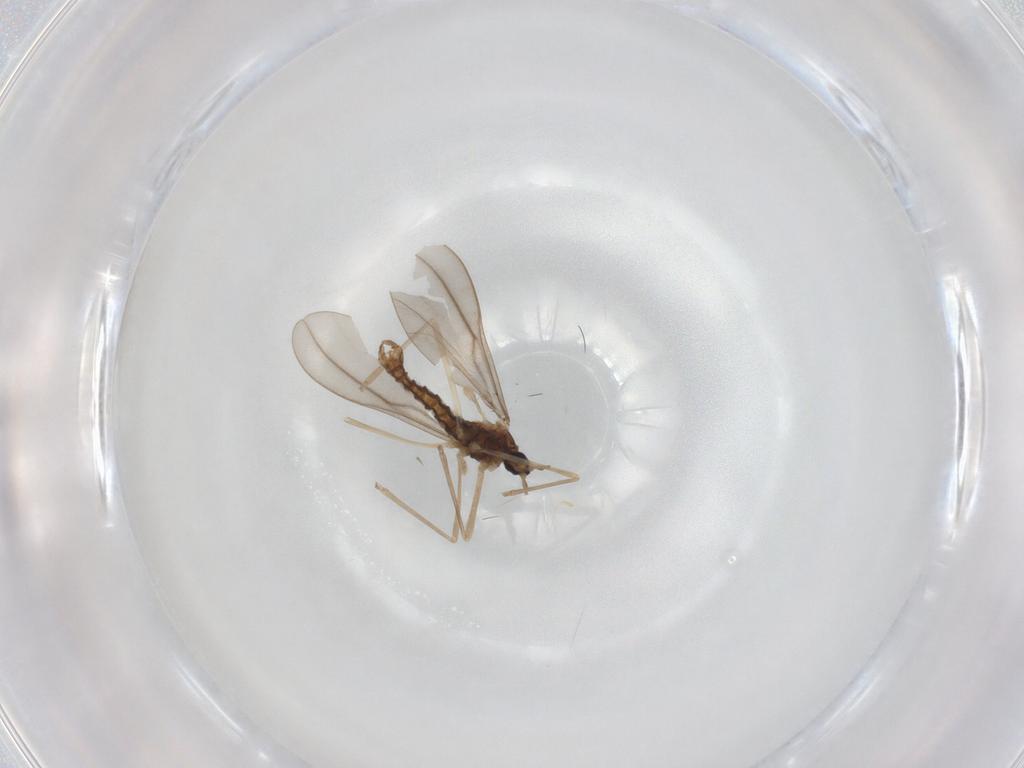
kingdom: Animalia
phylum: Arthropoda
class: Insecta
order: Diptera
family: Cecidomyiidae
